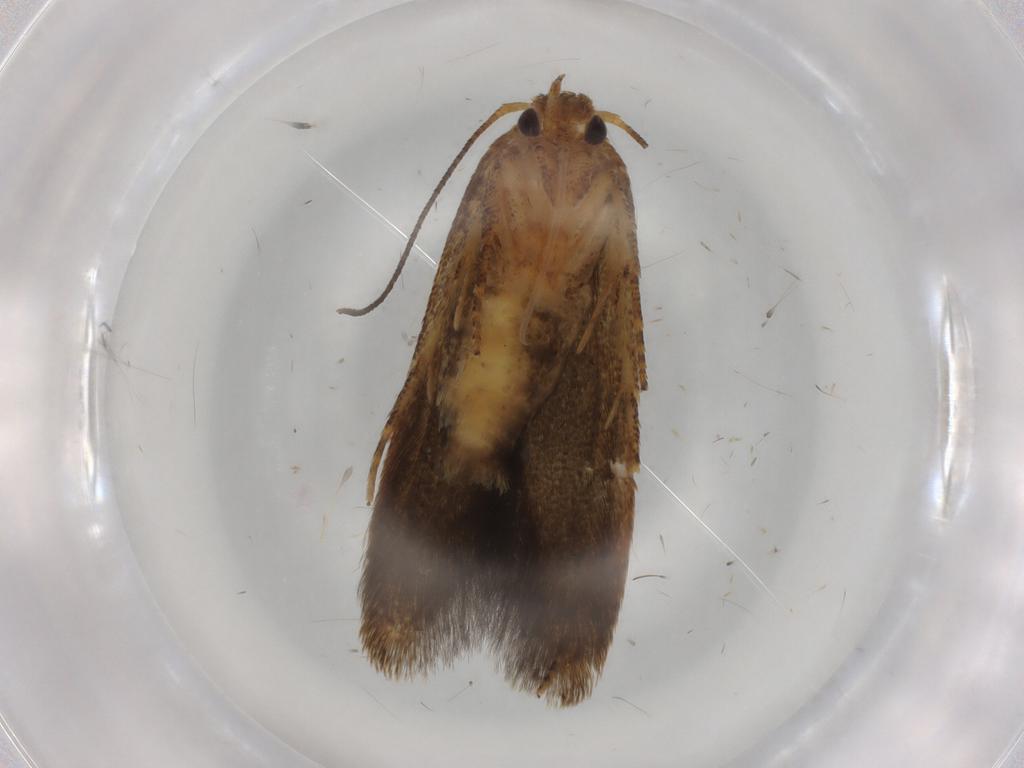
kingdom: Animalia
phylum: Arthropoda
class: Insecta
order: Lepidoptera
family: Blastobasidae
